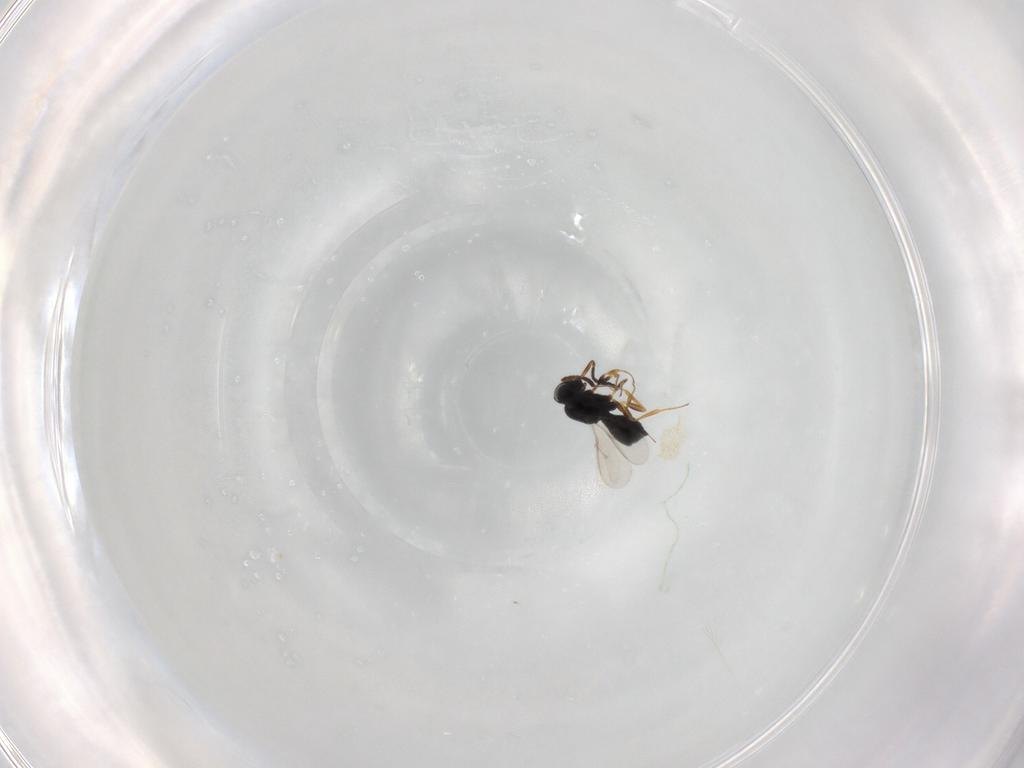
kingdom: Animalia
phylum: Arthropoda
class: Insecta
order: Hymenoptera
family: Scelionidae
